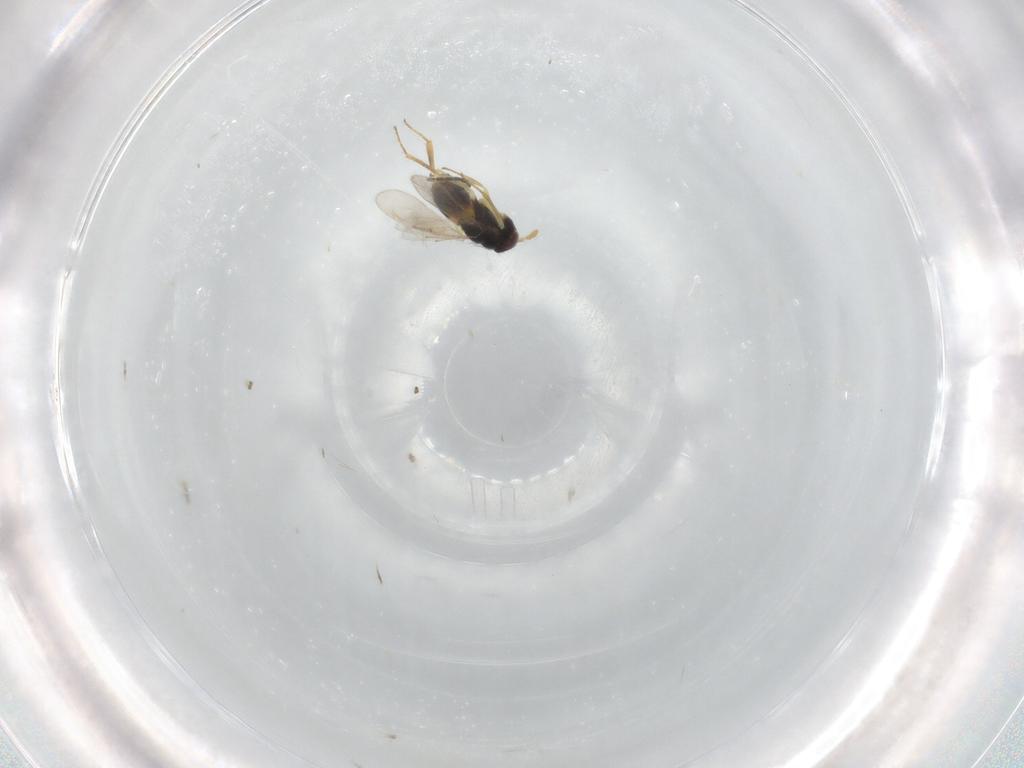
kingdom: Animalia
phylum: Arthropoda
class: Insecta
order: Hymenoptera
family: Aphelinidae
